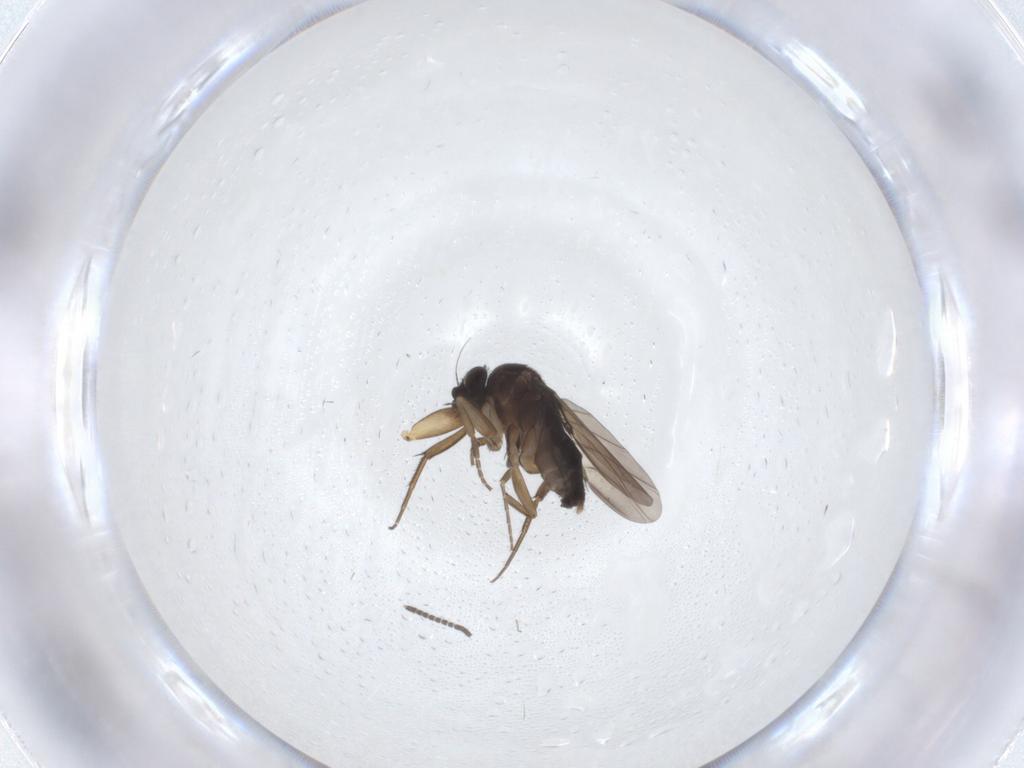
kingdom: Animalia
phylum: Arthropoda
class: Insecta
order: Diptera
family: Phoridae
